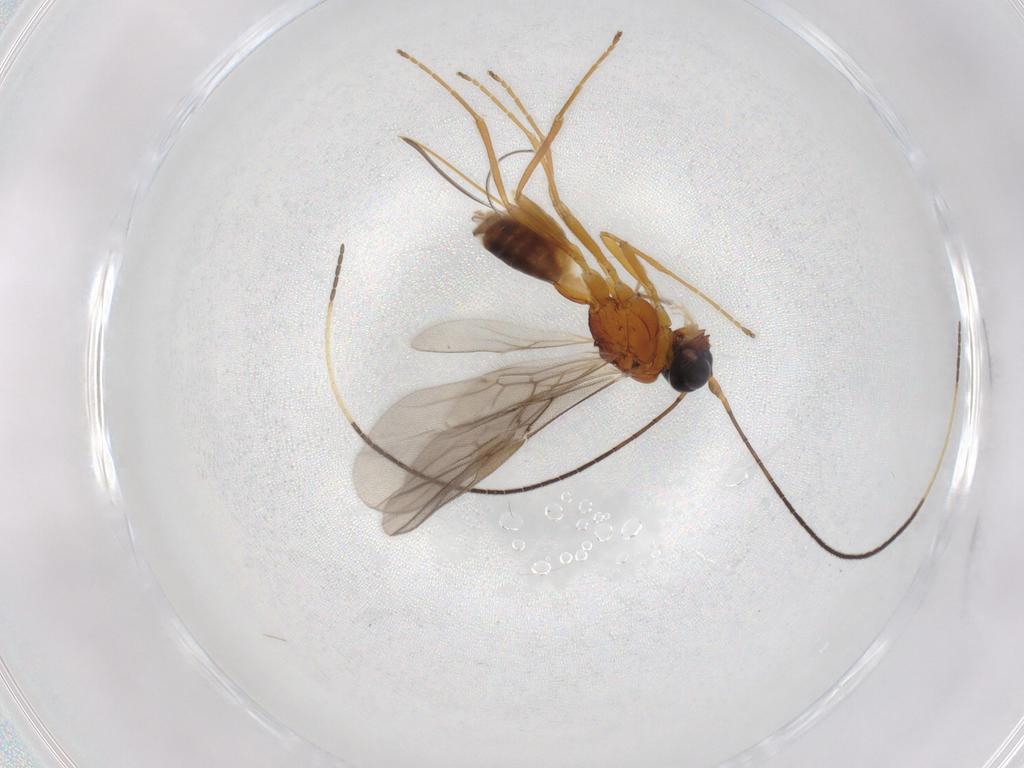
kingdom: Animalia
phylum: Arthropoda
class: Insecta
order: Hymenoptera
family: Braconidae
